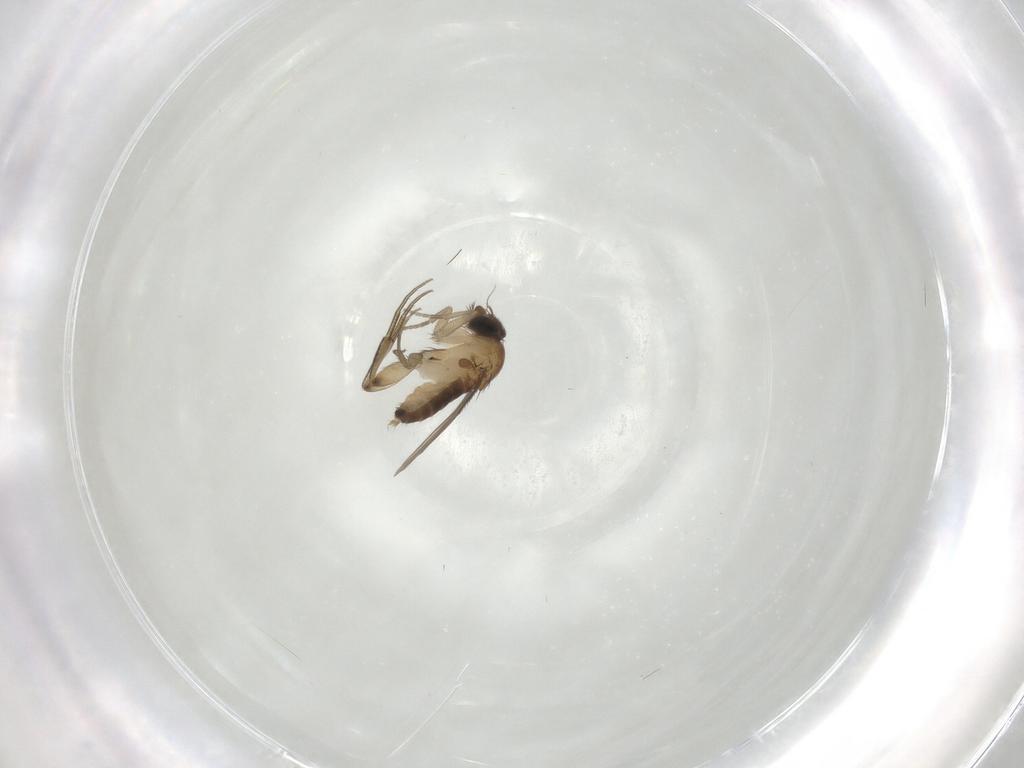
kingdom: Animalia
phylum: Arthropoda
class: Insecta
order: Diptera
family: Phoridae
